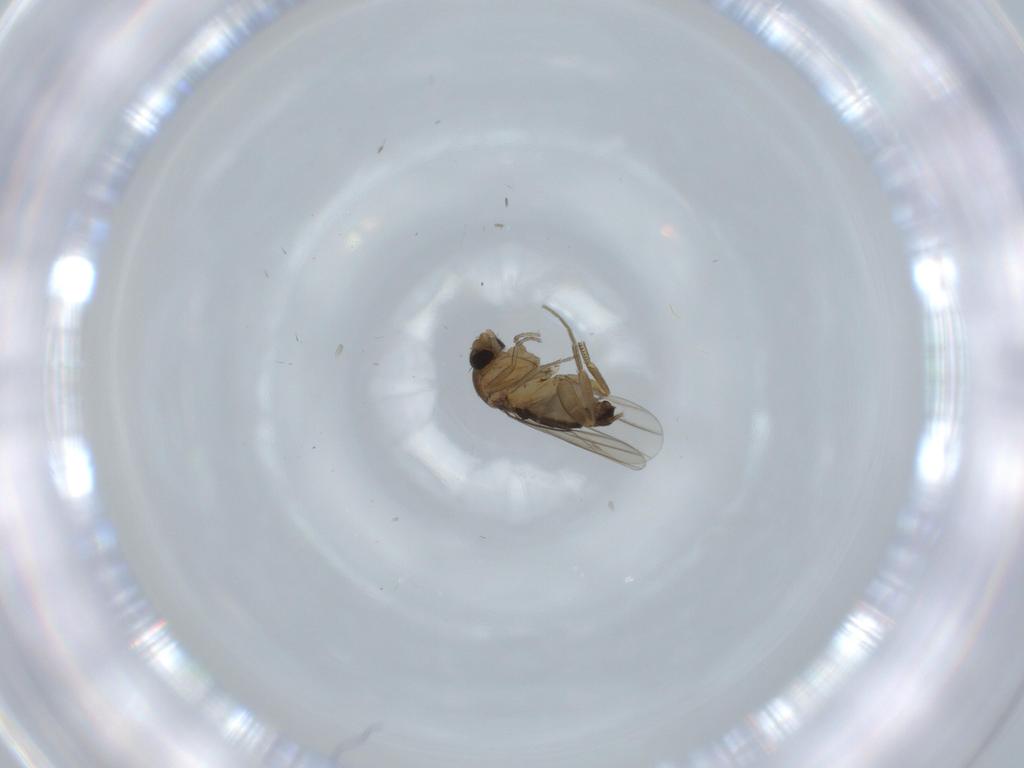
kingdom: Animalia
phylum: Arthropoda
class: Insecta
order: Diptera
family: Phoridae
